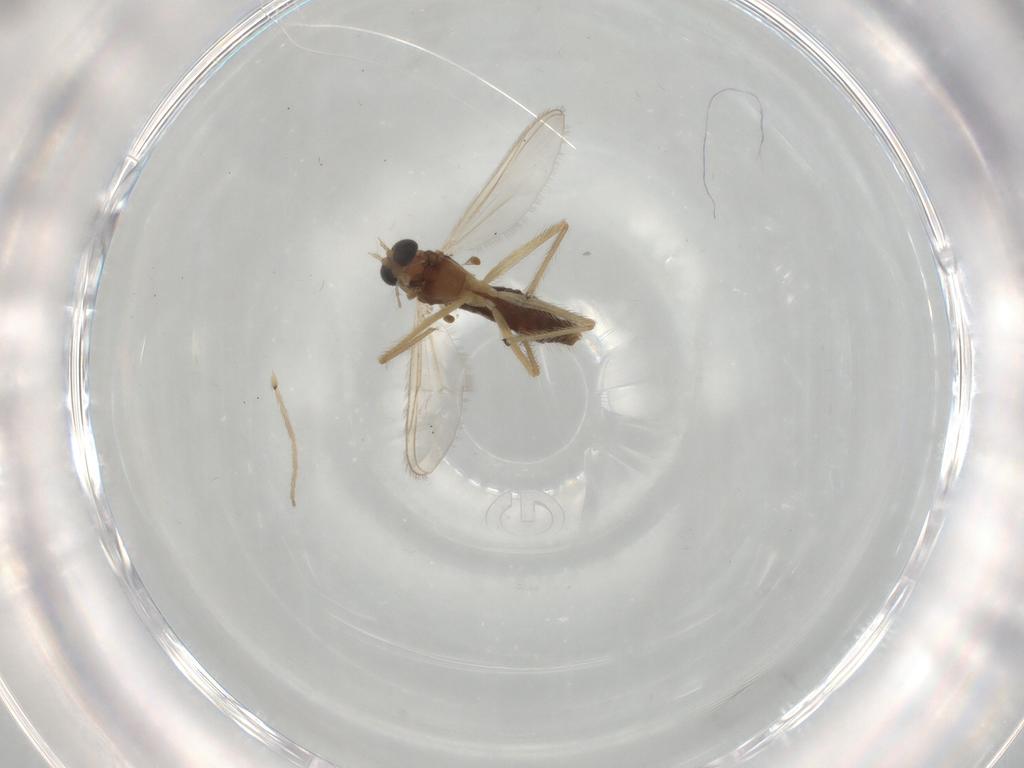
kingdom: Animalia
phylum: Arthropoda
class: Insecta
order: Diptera
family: Chironomidae
